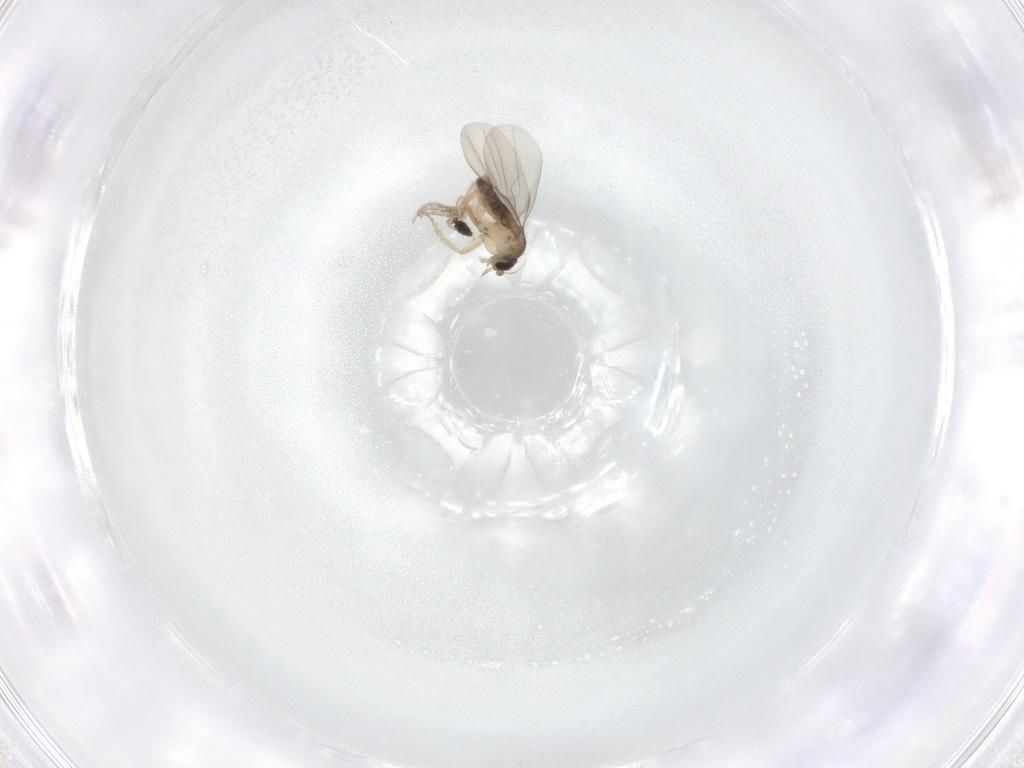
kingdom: Animalia
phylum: Arthropoda
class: Insecta
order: Diptera
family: Phoridae
